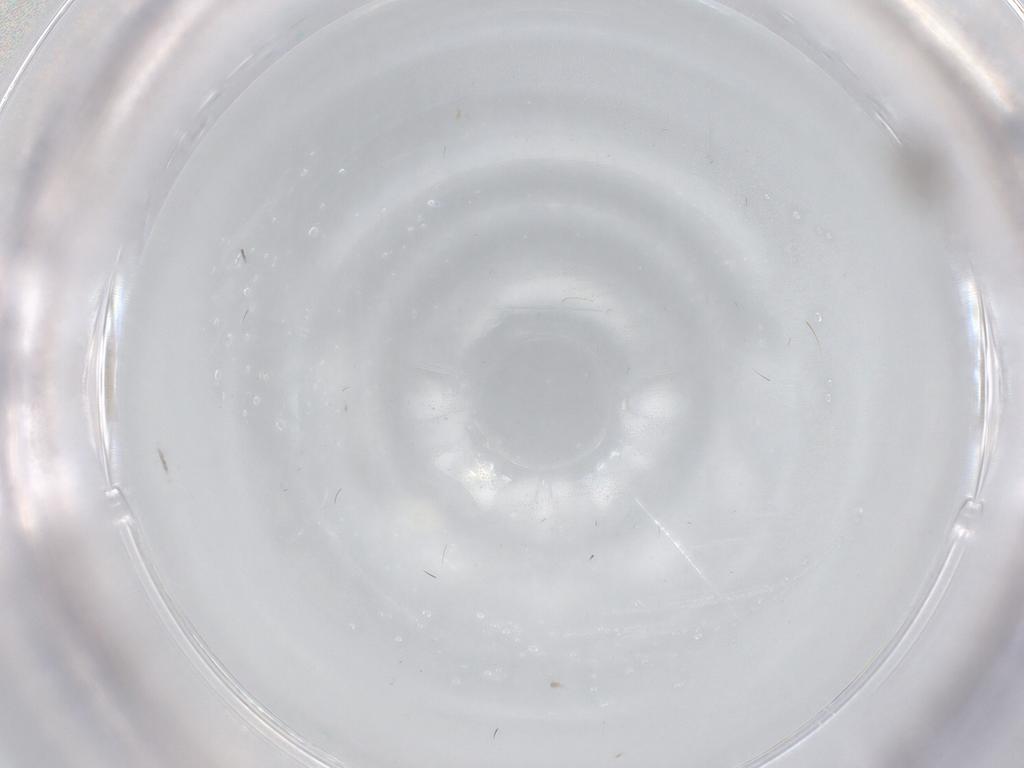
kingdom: Animalia
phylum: Arthropoda
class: Insecta
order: Diptera
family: Cecidomyiidae
